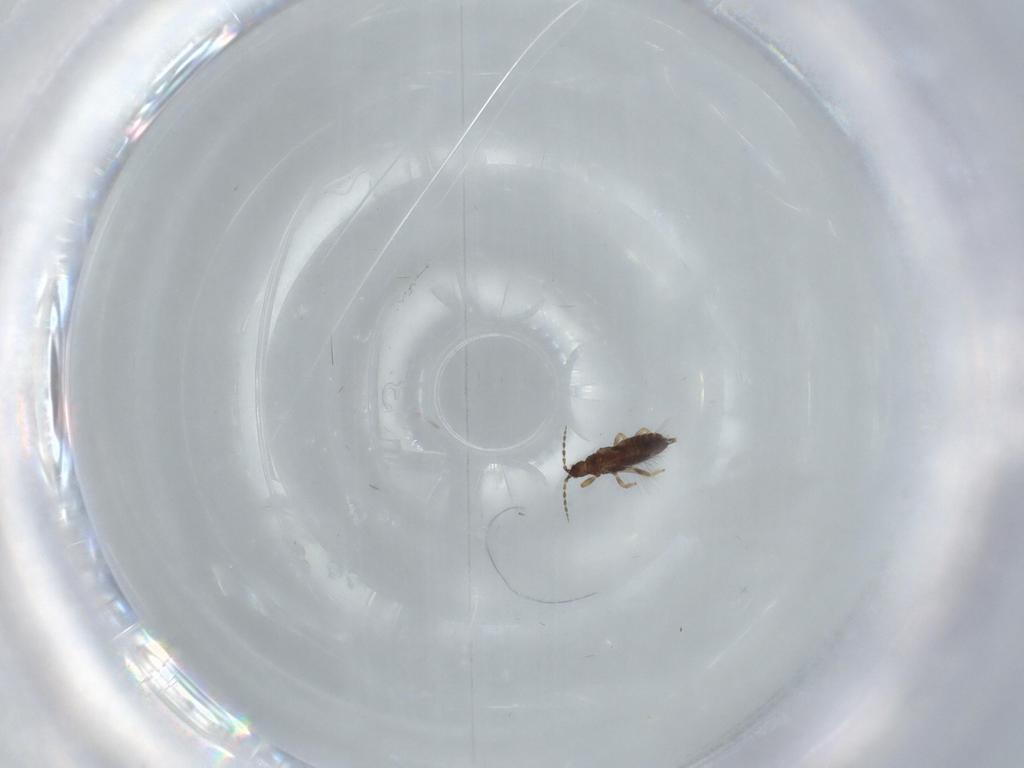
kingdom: Animalia
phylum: Arthropoda
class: Insecta
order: Thysanoptera
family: Phlaeothripidae
